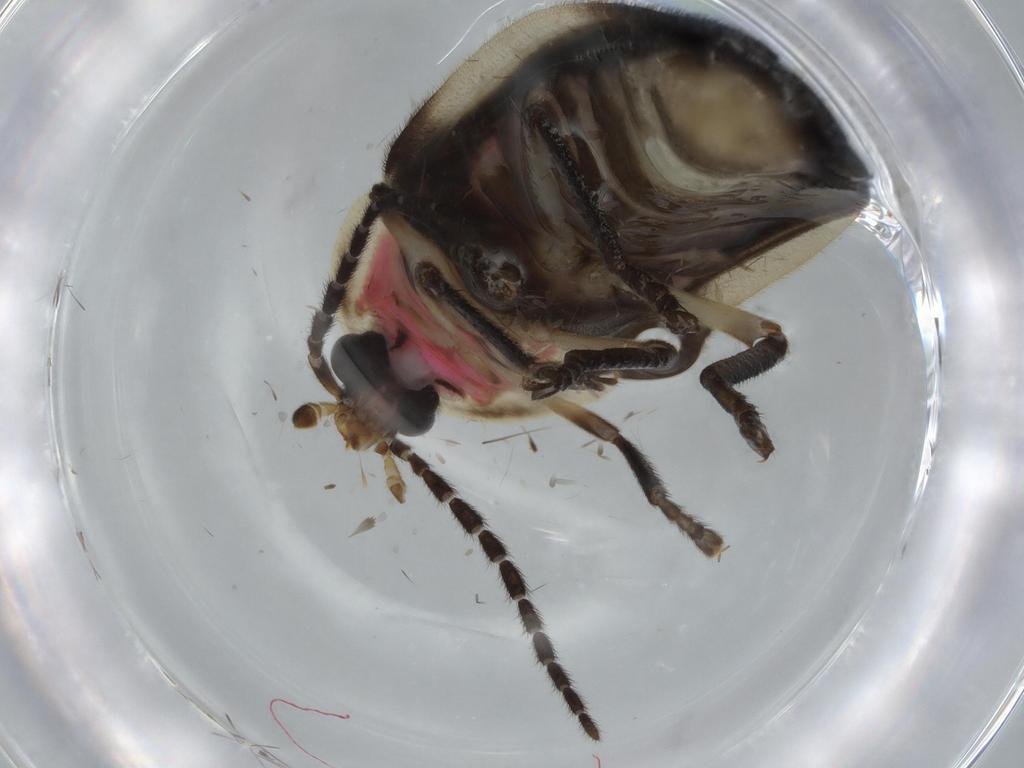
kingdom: Animalia
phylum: Arthropoda
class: Insecta
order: Coleoptera
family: Lampyridae
